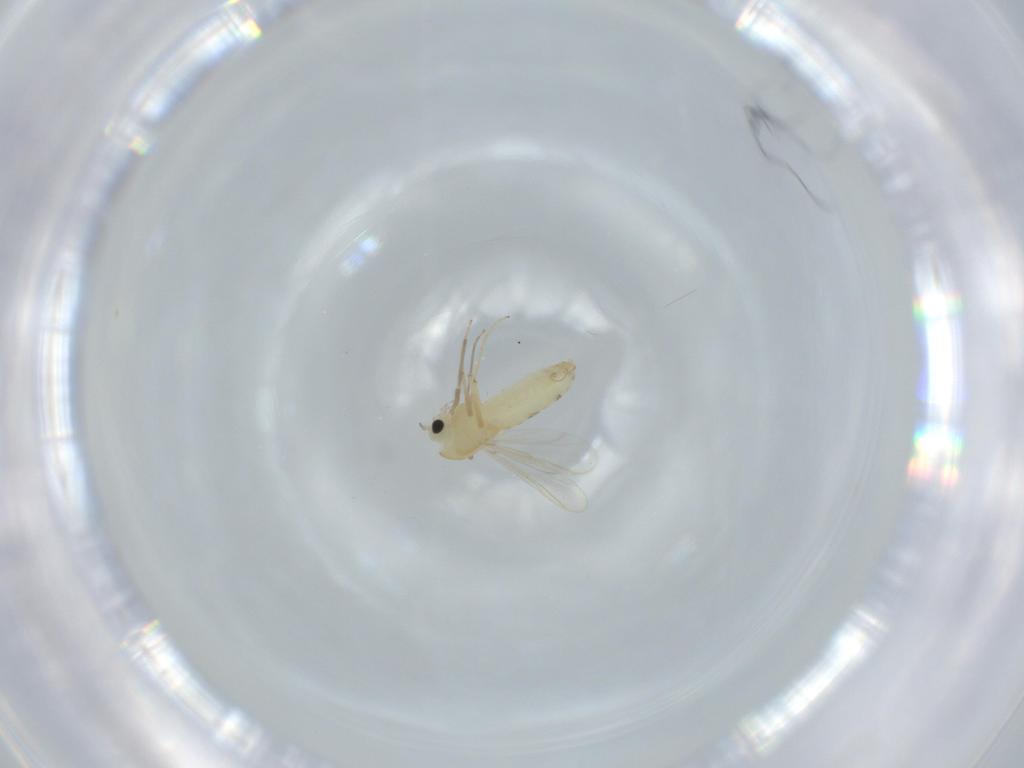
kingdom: Animalia
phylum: Arthropoda
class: Insecta
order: Diptera
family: Chironomidae
